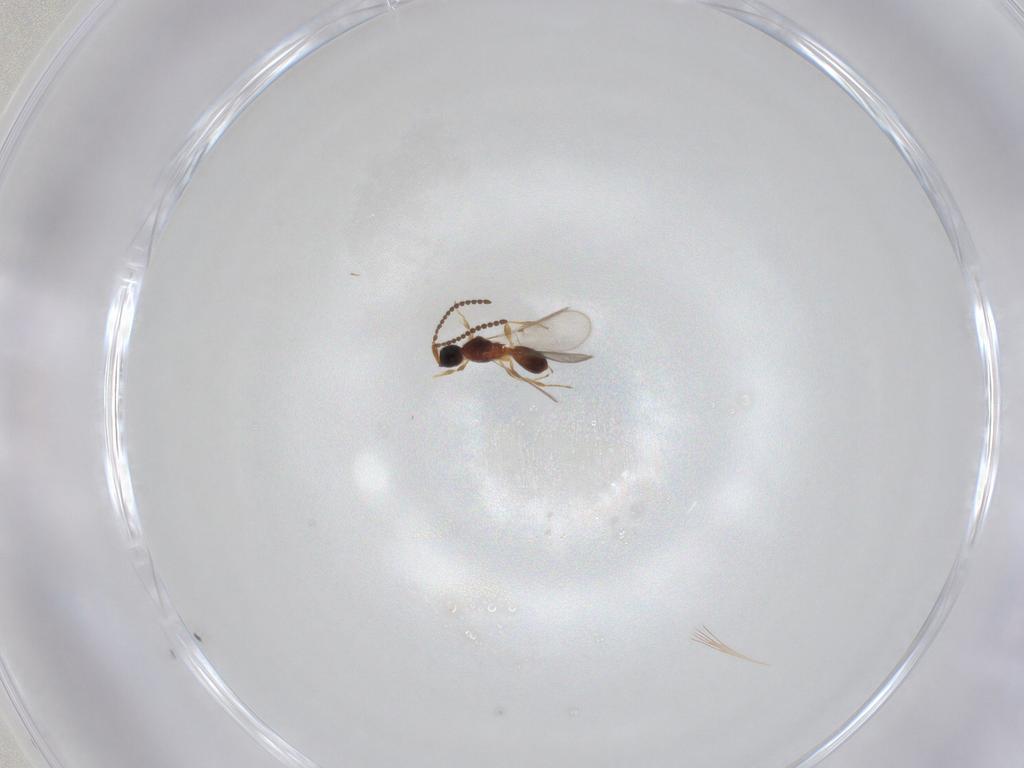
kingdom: Animalia
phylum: Arthropoda
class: Insecta
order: Hymenoptera
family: Diapriidae
